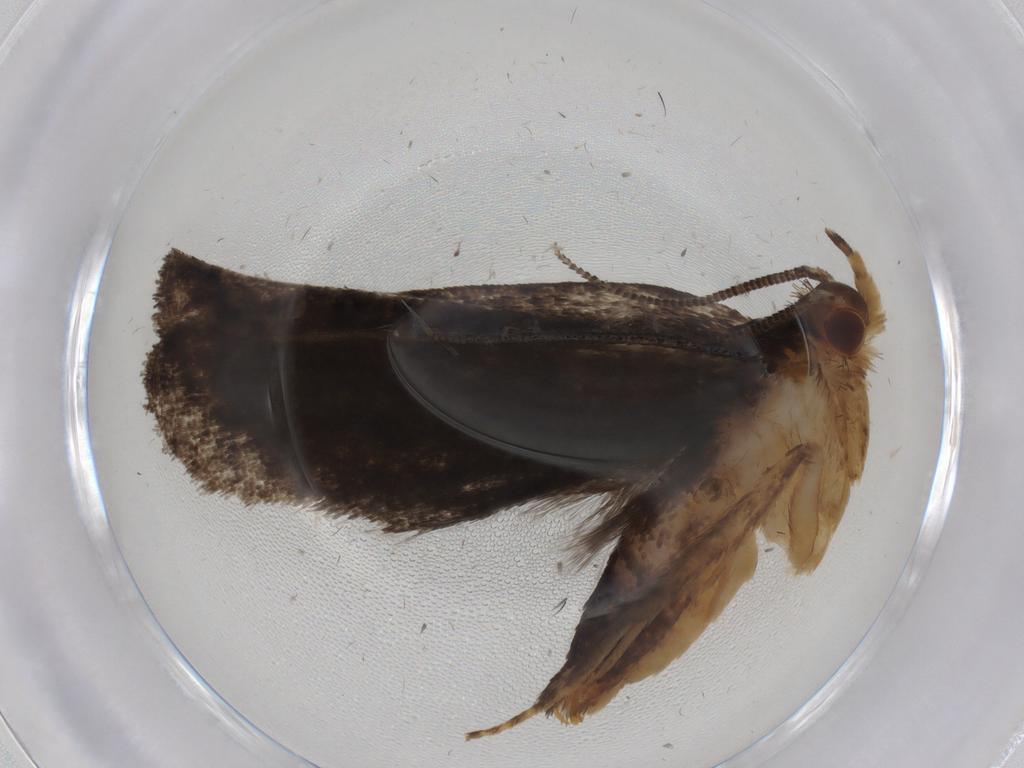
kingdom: Animalia
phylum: Arthropoda
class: Insecta
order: Lepidoptera
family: Tineidae
